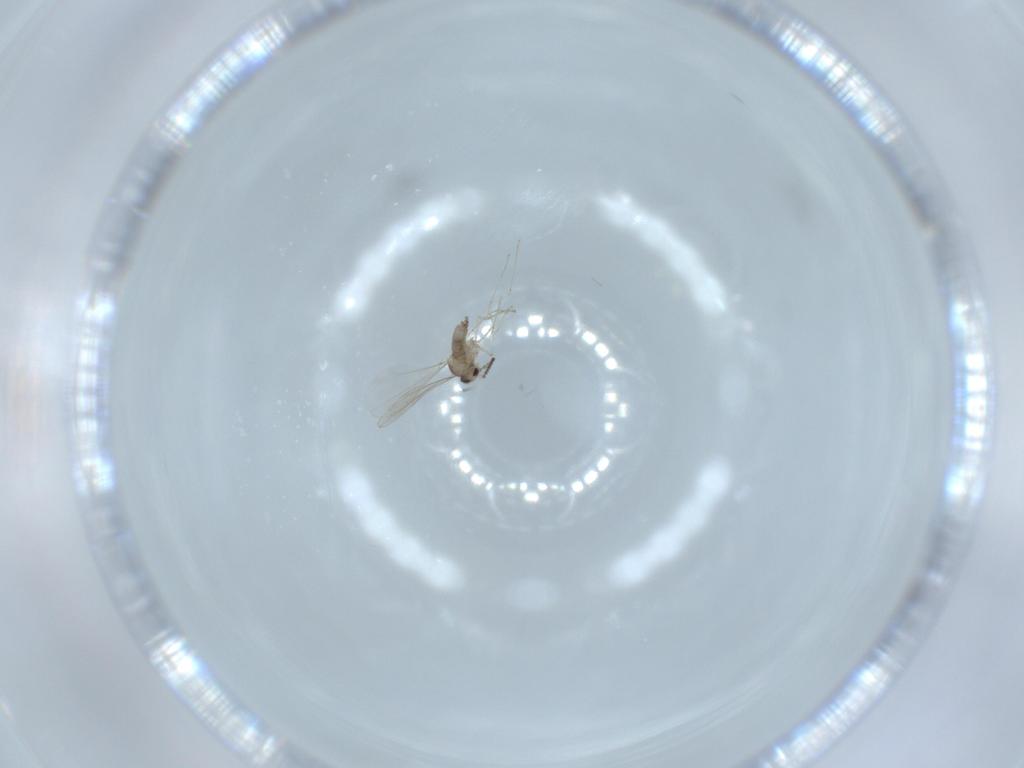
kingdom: Animalia
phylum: Arthropoda
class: Insecta
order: Diptera
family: Cecidomyiidae
